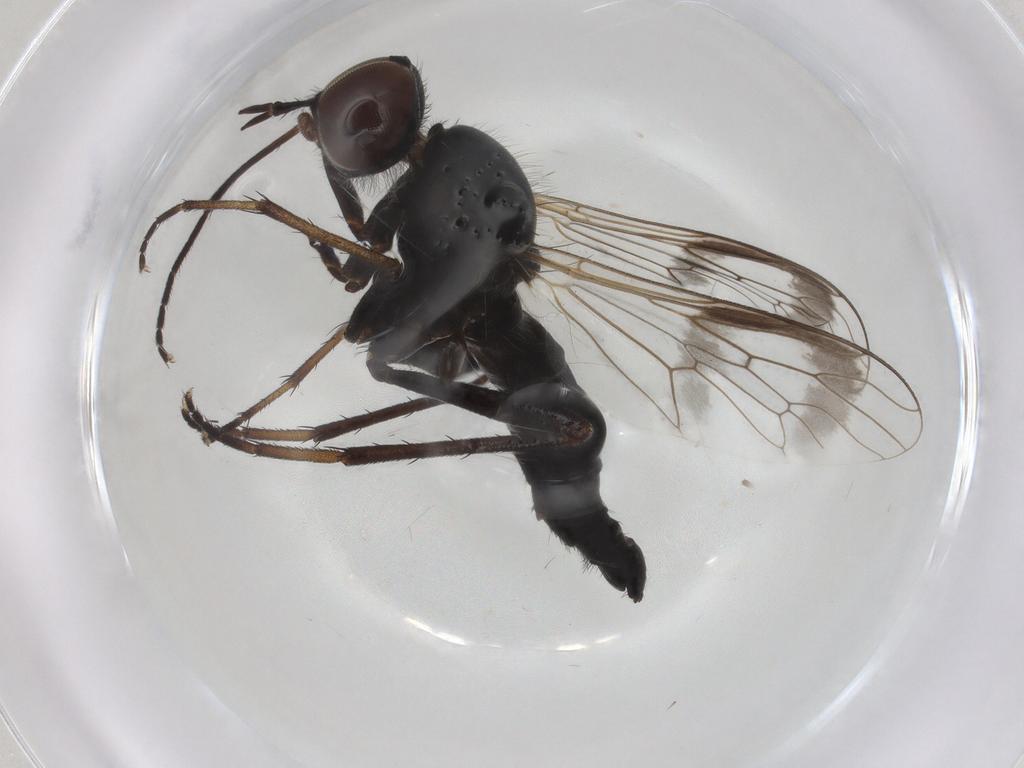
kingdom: Animalia
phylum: Arthropoda
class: Insecta
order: Diptera
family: Therevidae
